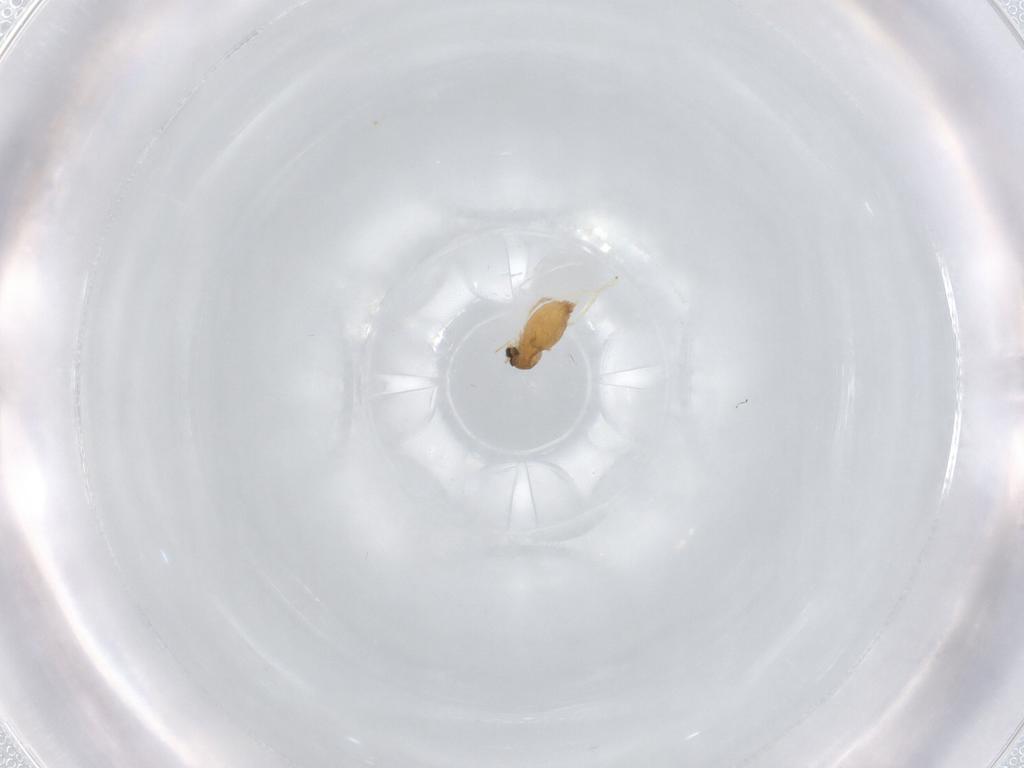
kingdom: Animalia
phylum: Arthropoda
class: Insecta
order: Diptera
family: Cecidomyiidae
